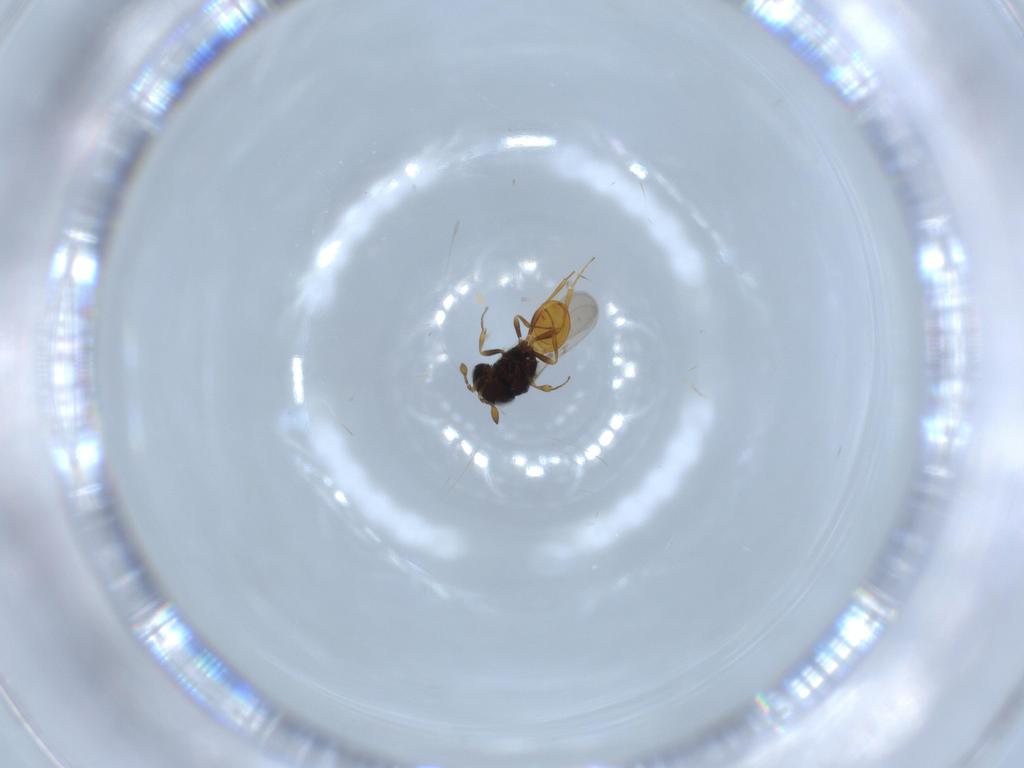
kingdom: Animalia
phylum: Arthropoda
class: Insecta
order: Hymenoptera
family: Scelionidae
